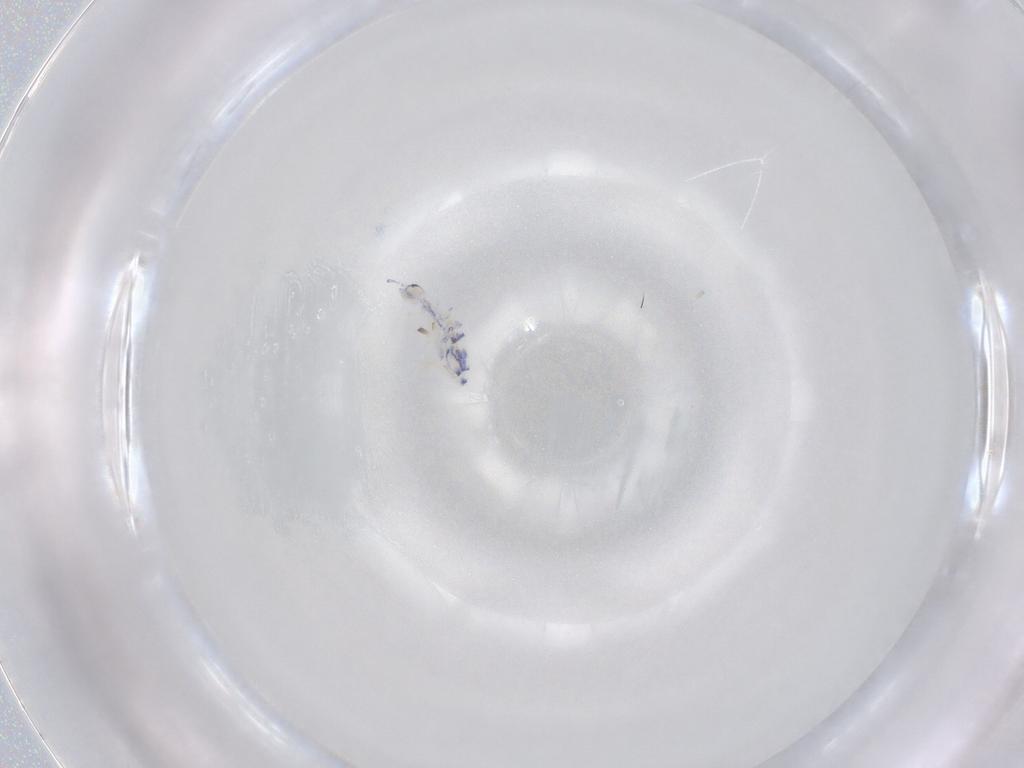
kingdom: Animalia
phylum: Arthropoda
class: Collembola
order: Entomobryomorpha
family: Entomobryidae
